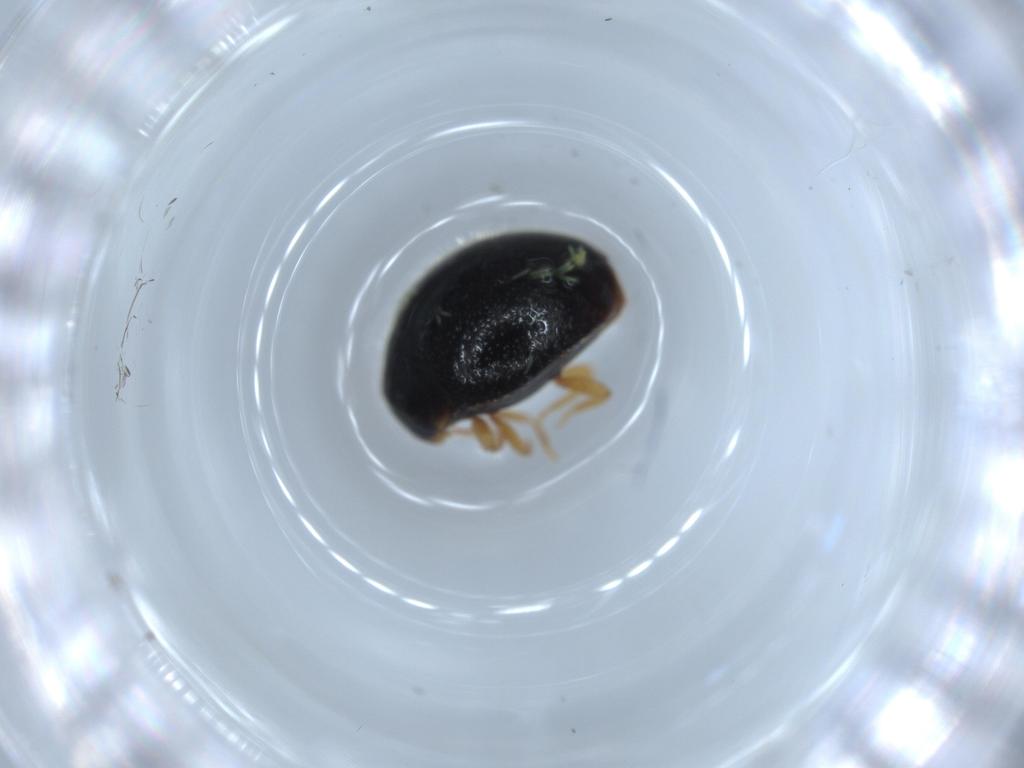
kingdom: Animalia
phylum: Arthropoda
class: Insecta
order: Coleoptera
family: Coccinellidae
